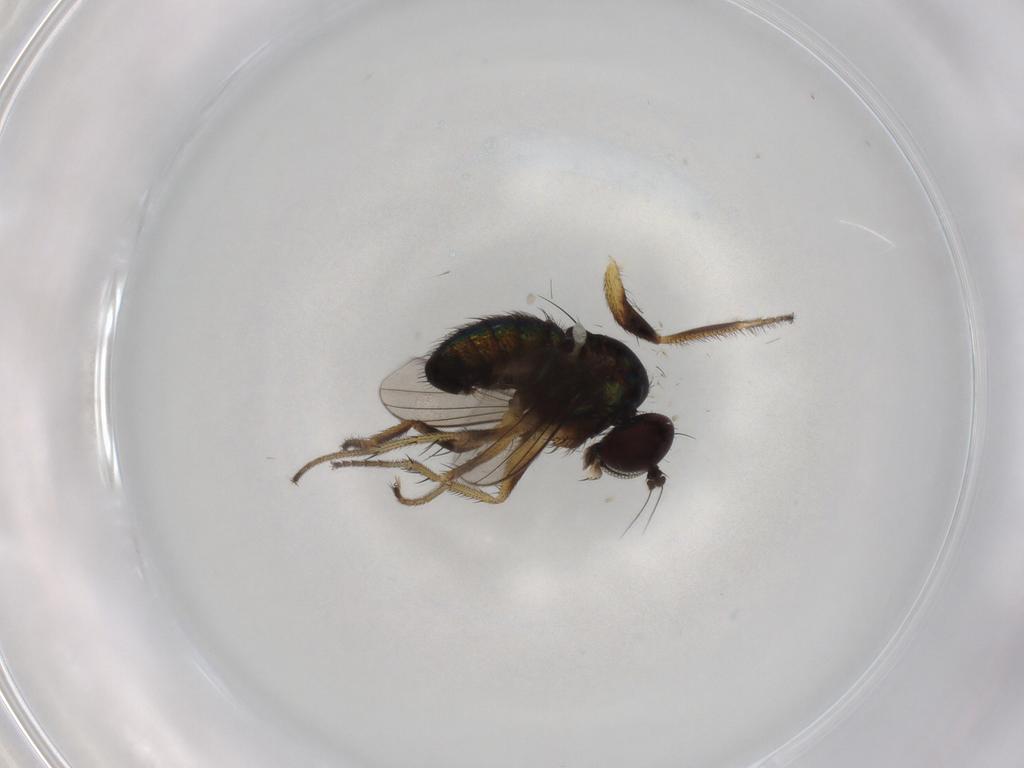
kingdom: Animalia
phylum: Arthropoda
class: Insecta
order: Diptera
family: Dolichopodidae
